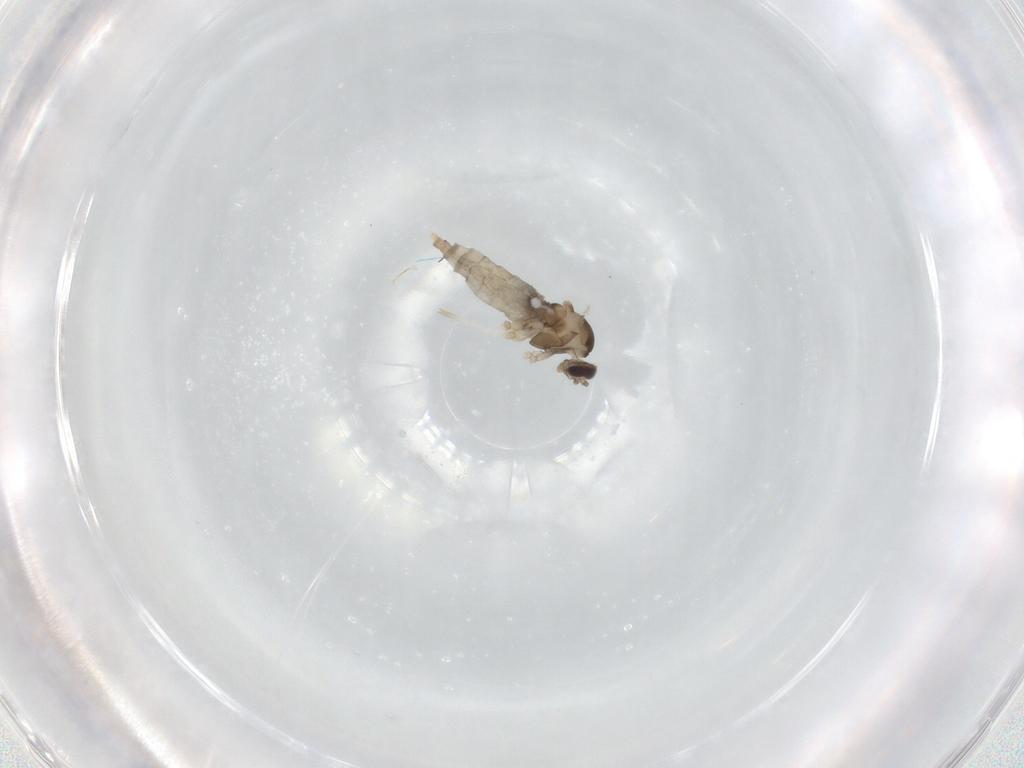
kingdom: Animalia
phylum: Arthropoda
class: Insecta
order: Diptera
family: Cecidomyiidae
